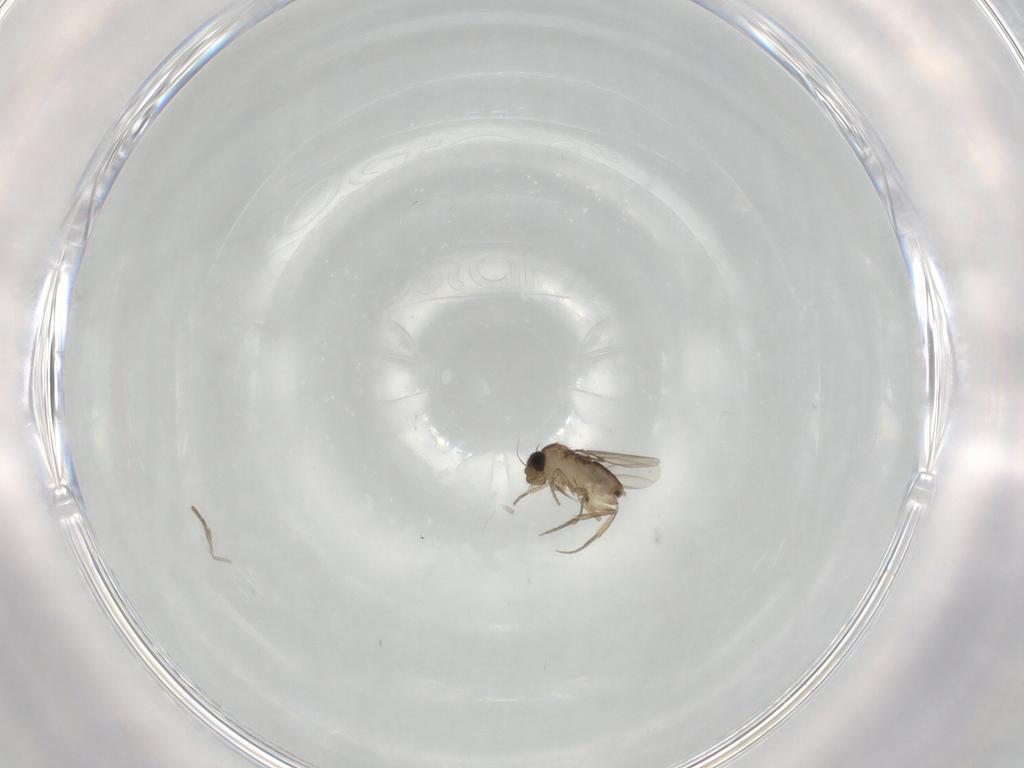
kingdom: Animalia
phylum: Arthropoda
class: Insecta
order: Diptera
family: Phoridae
